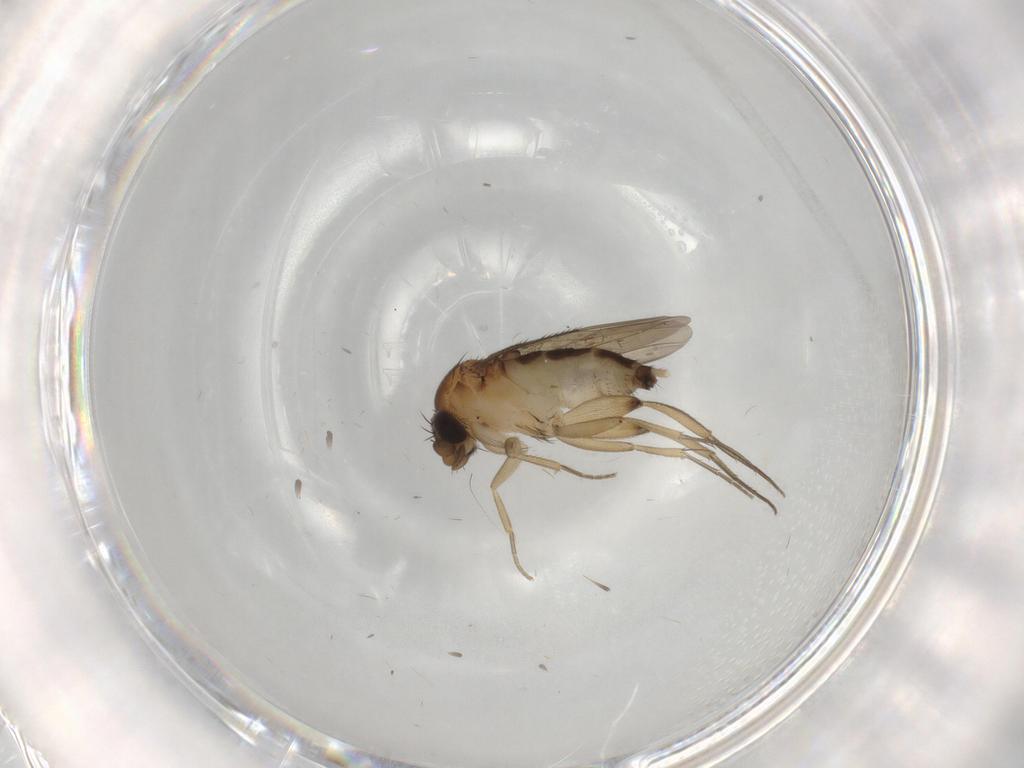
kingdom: Animalia
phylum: Arthropoda
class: Insecta
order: Diptera
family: Phoridae
